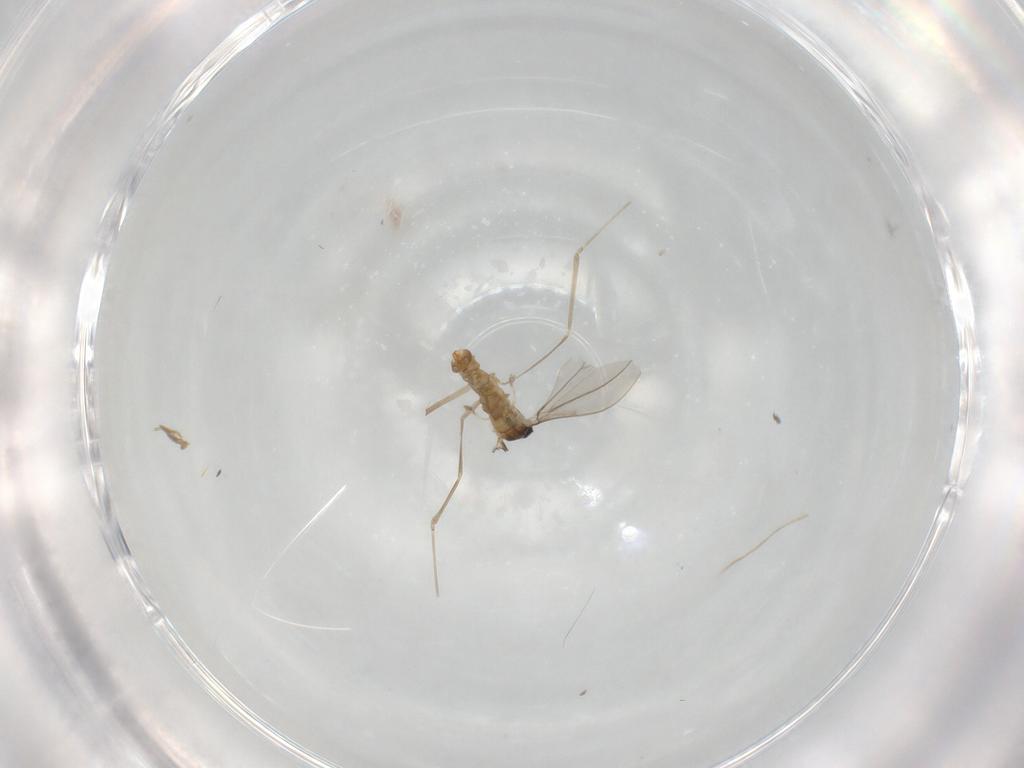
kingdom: Animalia
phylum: Arthropoda
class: Insecta
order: Diptera
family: Cecidomyiidae
